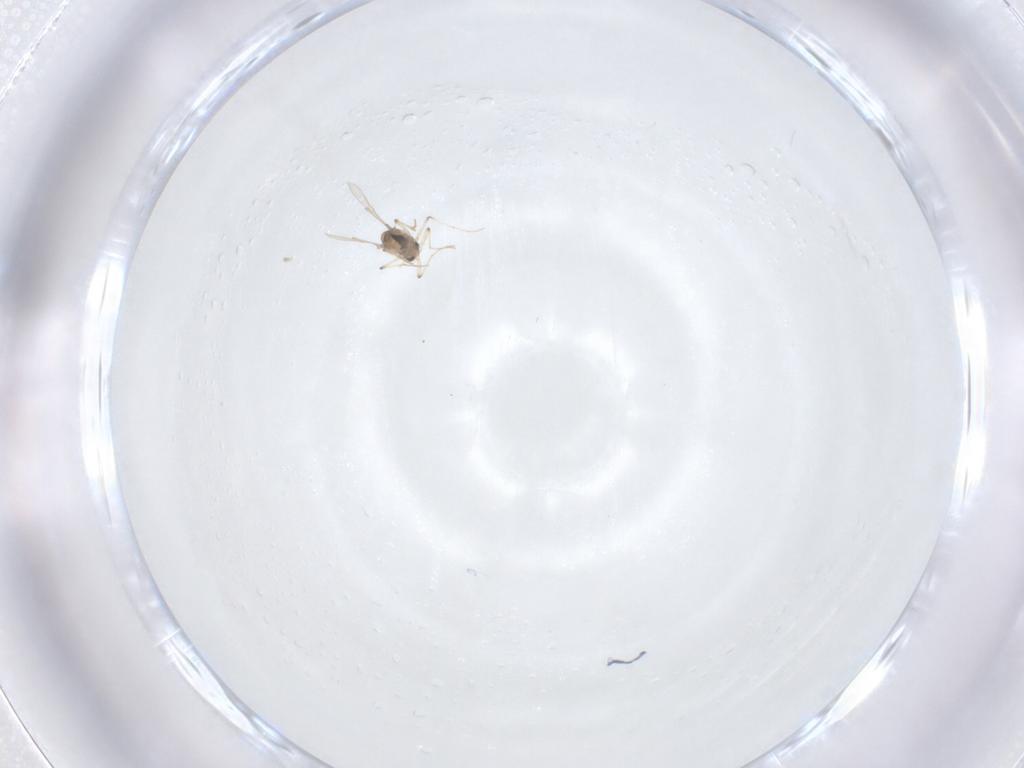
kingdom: Animalia
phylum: Arthropoda
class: Insecta
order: Diptera
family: Chironomidae
